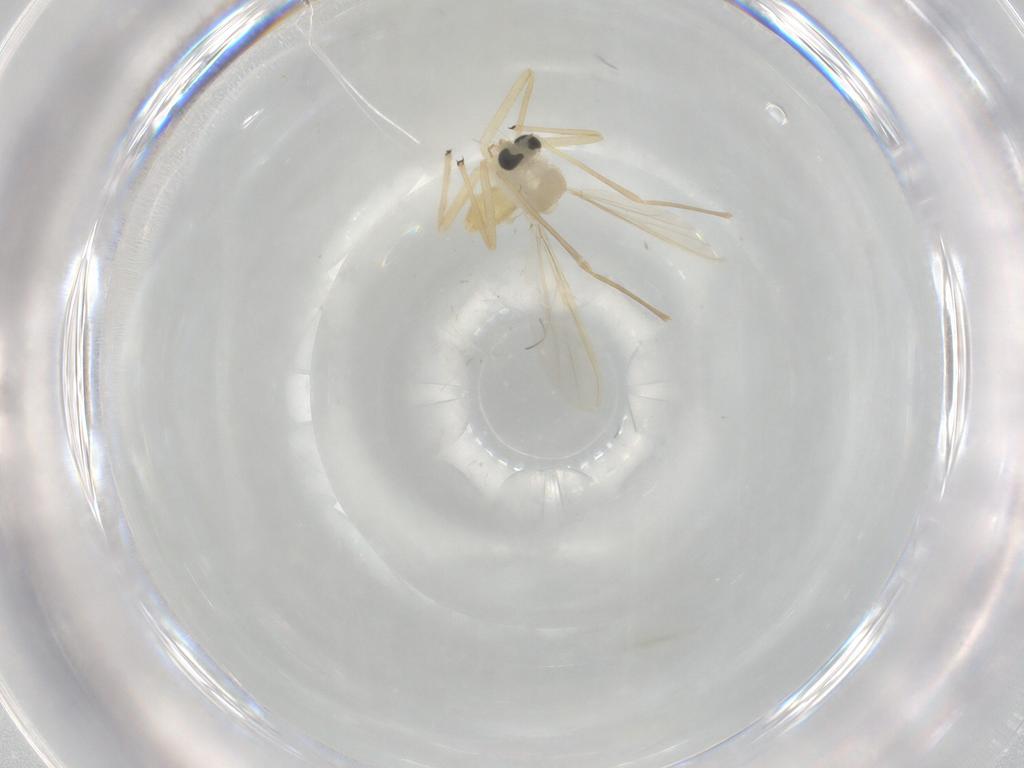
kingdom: Animalia
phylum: Arthropoda
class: Insecta
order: Diptera
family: Chironomidae
